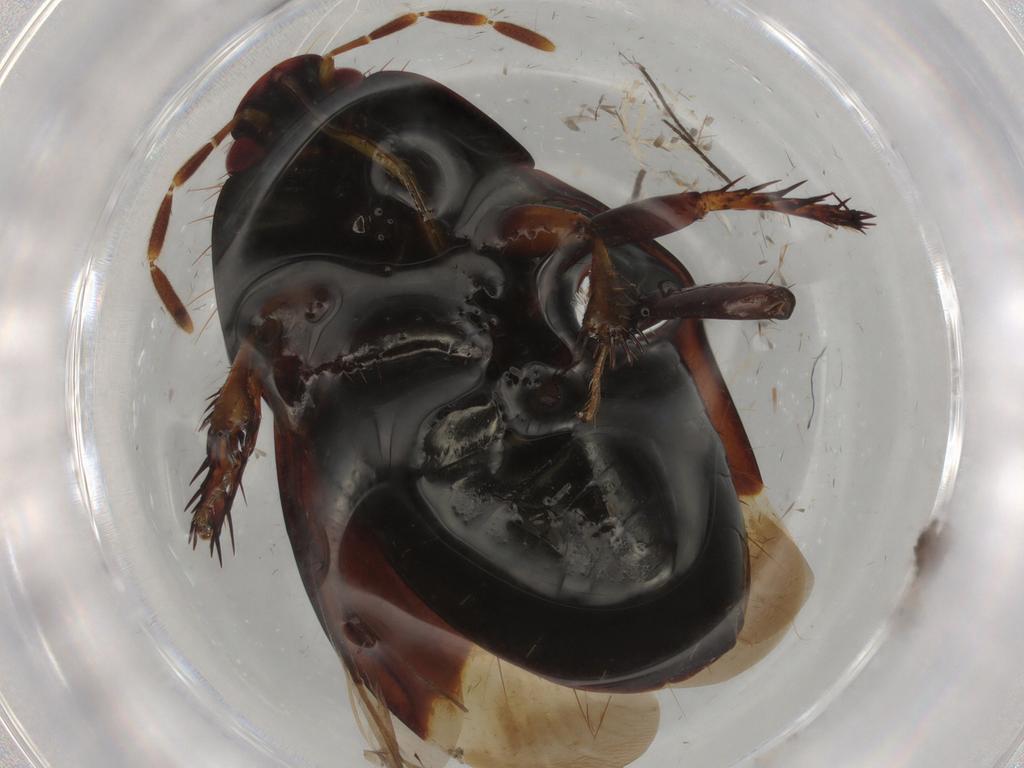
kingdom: Animalia
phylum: Arthropoda
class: Insecta
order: Hemiptera
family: Cydnidae
